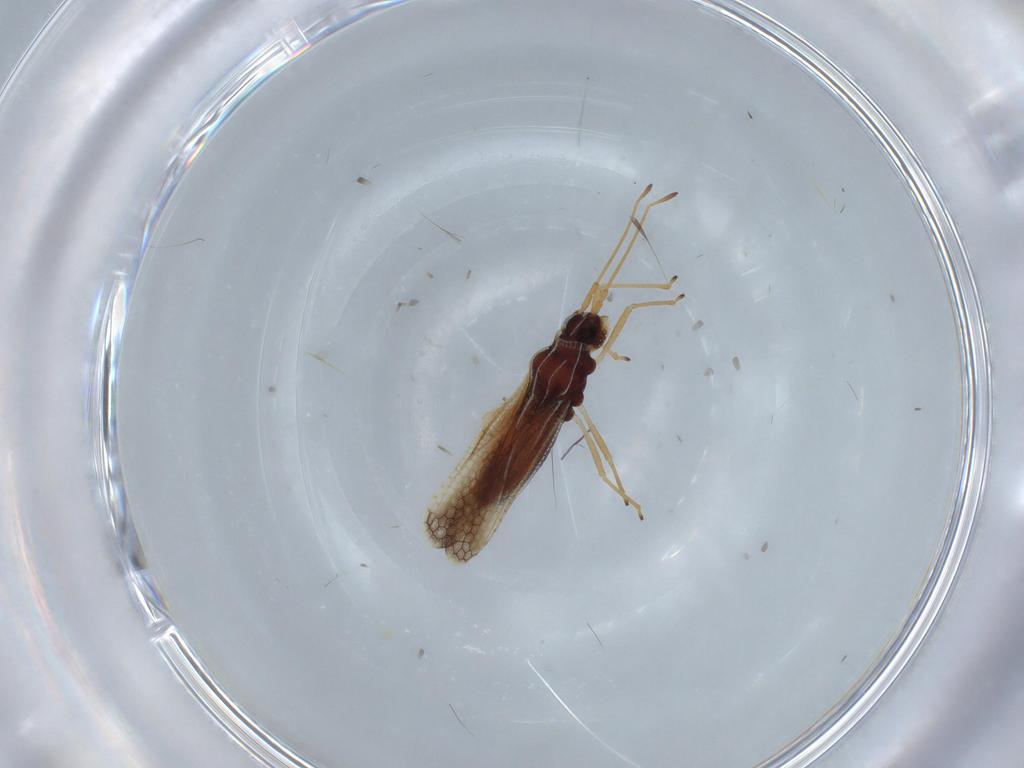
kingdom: Animalia
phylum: Arthropoda
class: Insecta
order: Hemiptera
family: Tingidae
